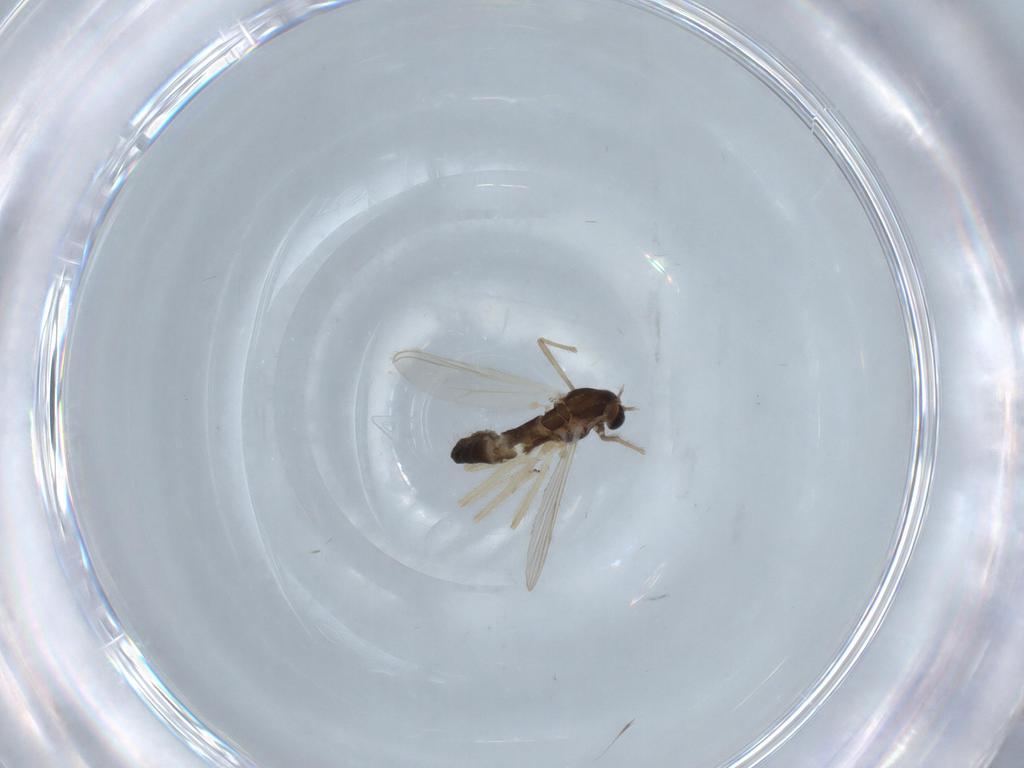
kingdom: Animalia
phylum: Arthropoda
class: Insecta
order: Diptera
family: Chironomidae
